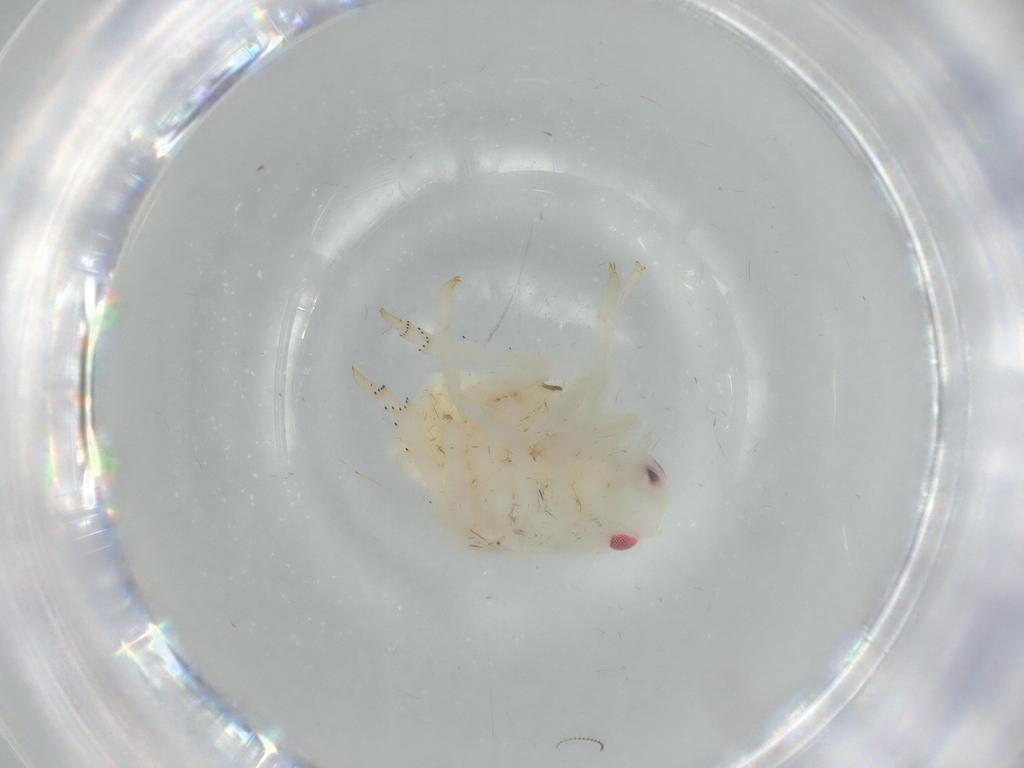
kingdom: Animalia
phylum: Arthropoda
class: Insecta
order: Hemiptera
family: Flatidae
